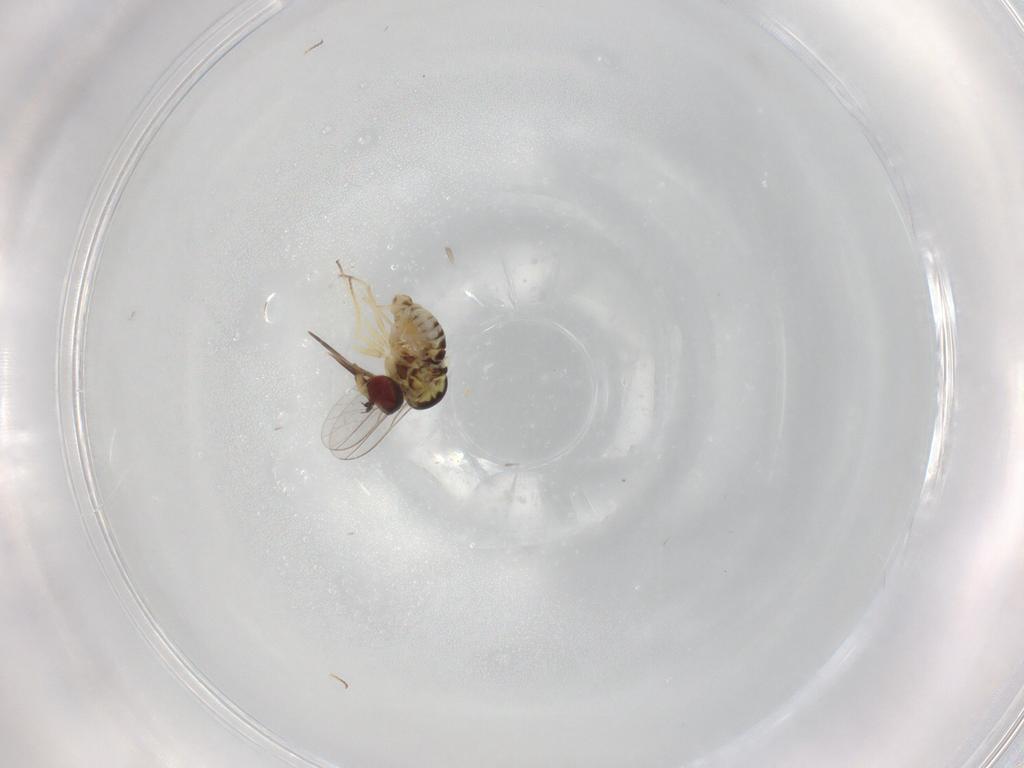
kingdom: Animalia
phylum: Arthropoda
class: Insecta
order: Diptera
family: Bombyliidae
